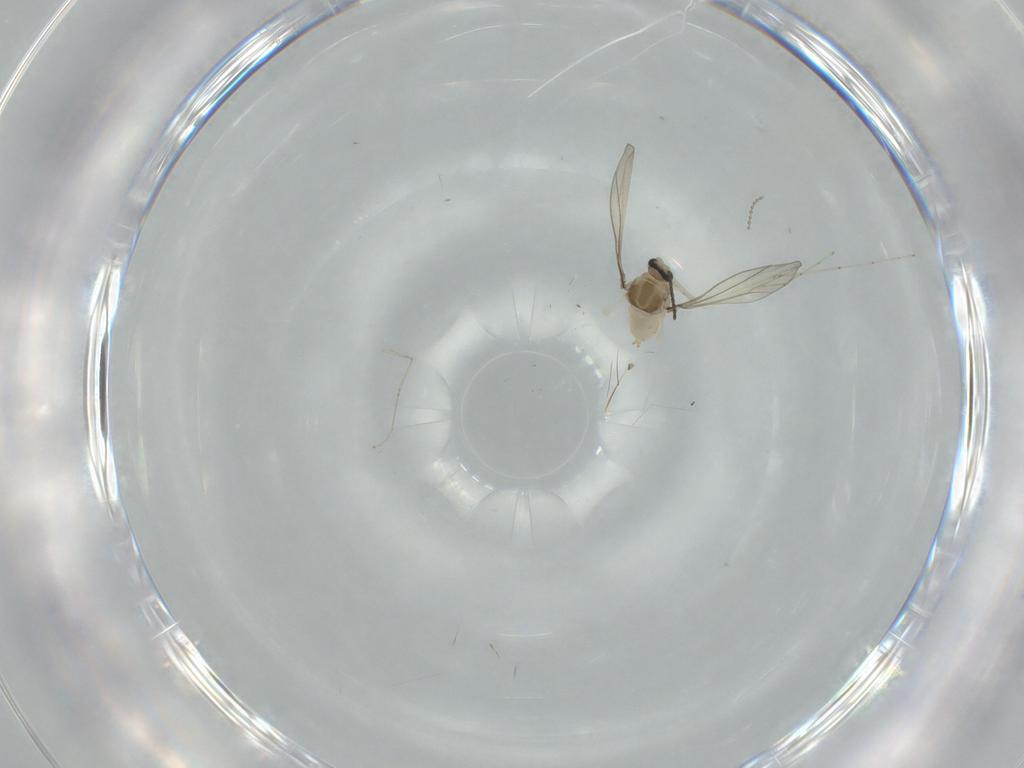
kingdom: Animalia
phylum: Arthropoda
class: Insecta
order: Diptera
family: Cecidomyiidae
